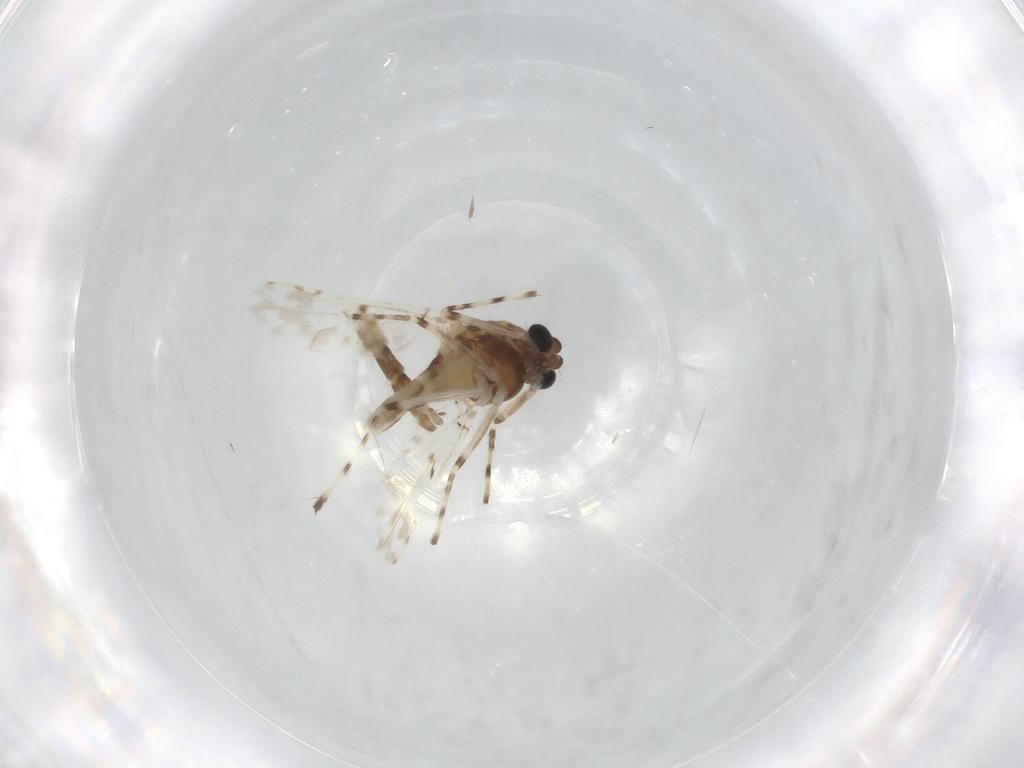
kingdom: Animalia
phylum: Arthropoda
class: Insecta
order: Diptera
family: Chironomidae
